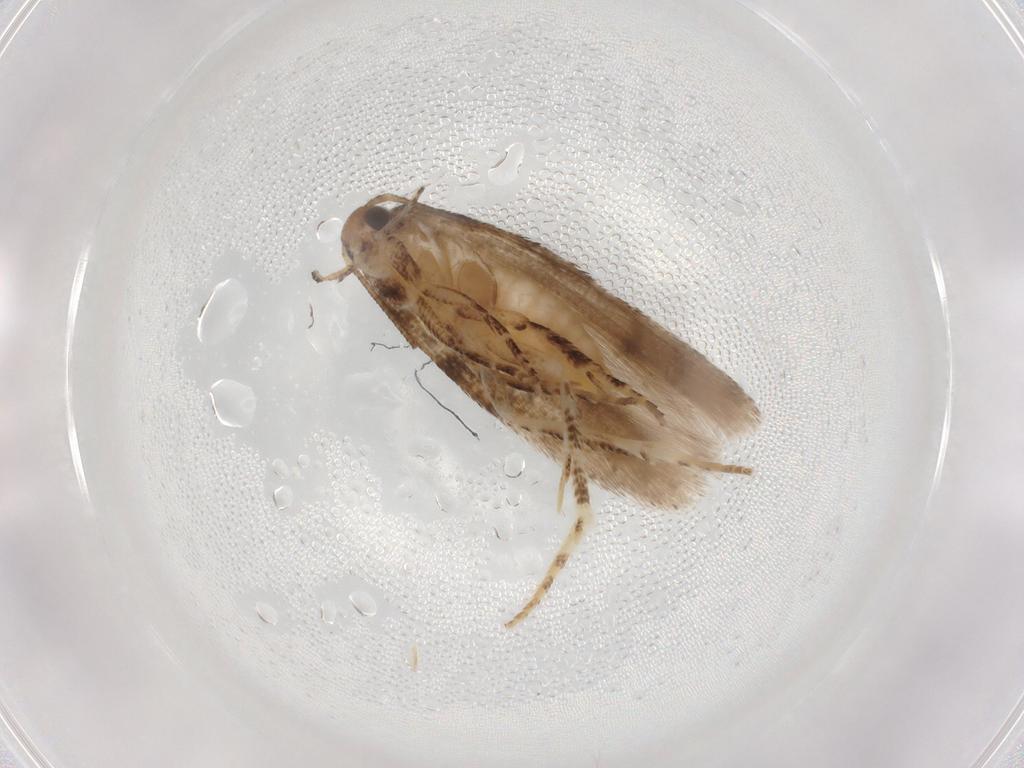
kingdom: Animalia
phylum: Arthropoda
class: Insecta
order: Lepidoptera
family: Gelechiidae
